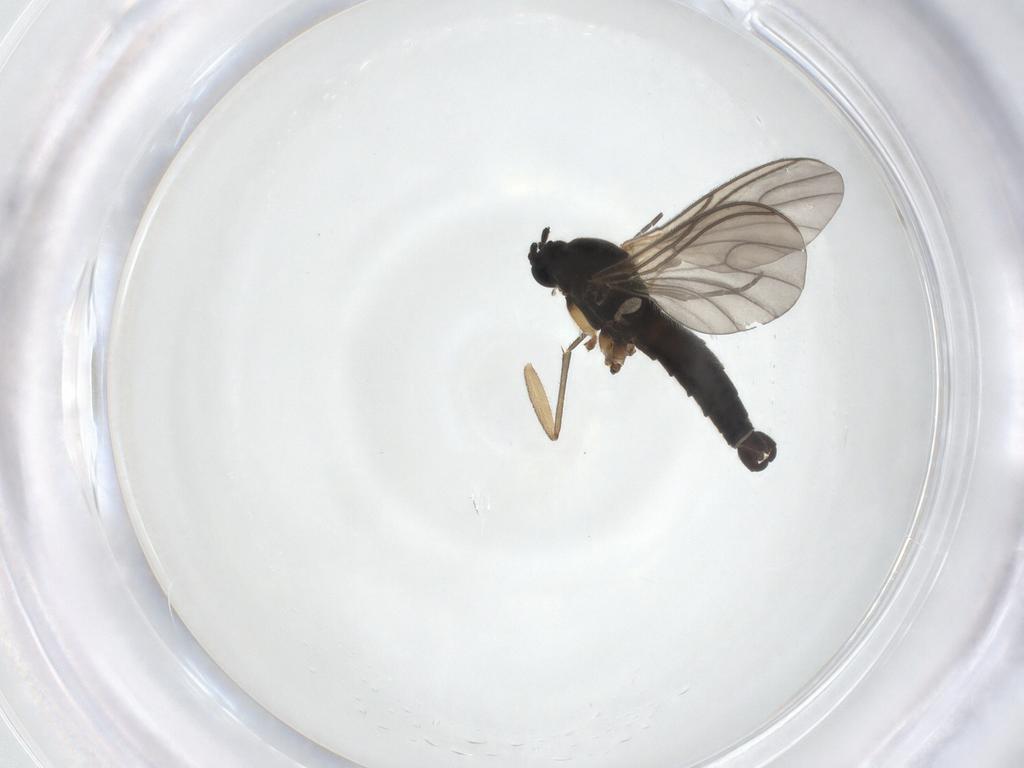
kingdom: Animalia
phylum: Arthropoda
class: Insecta
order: Diptera
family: Sciaridae
